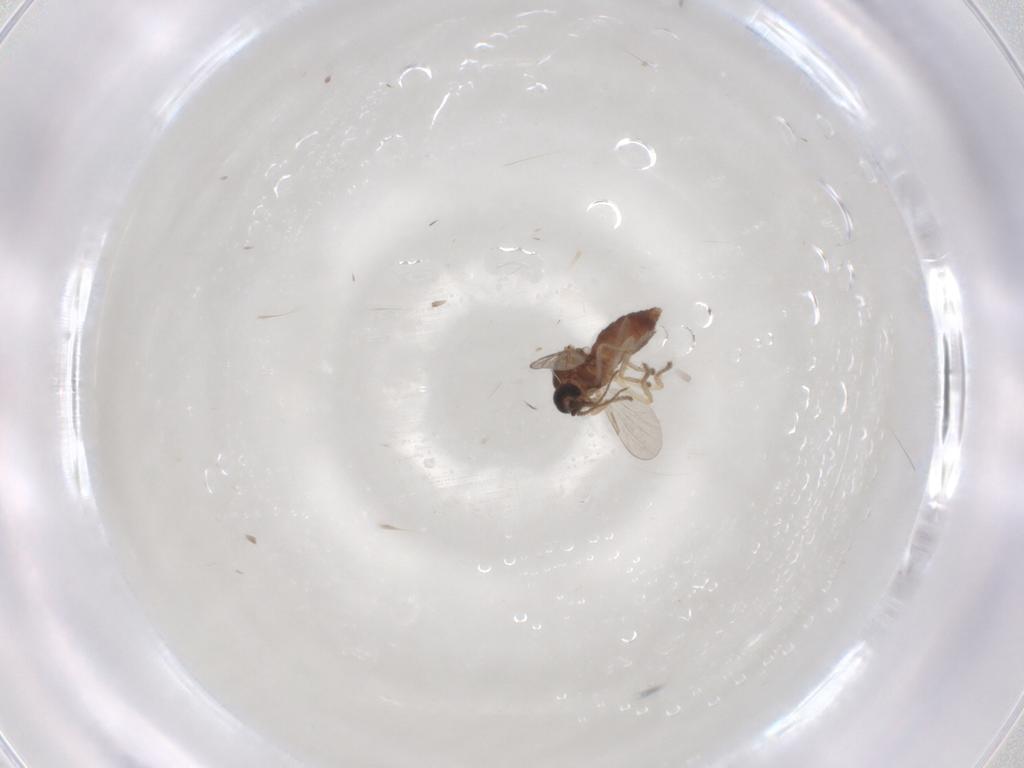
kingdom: Animalia
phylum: Arthropoda
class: Insecta
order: Diptera
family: Ceratopogonidae
